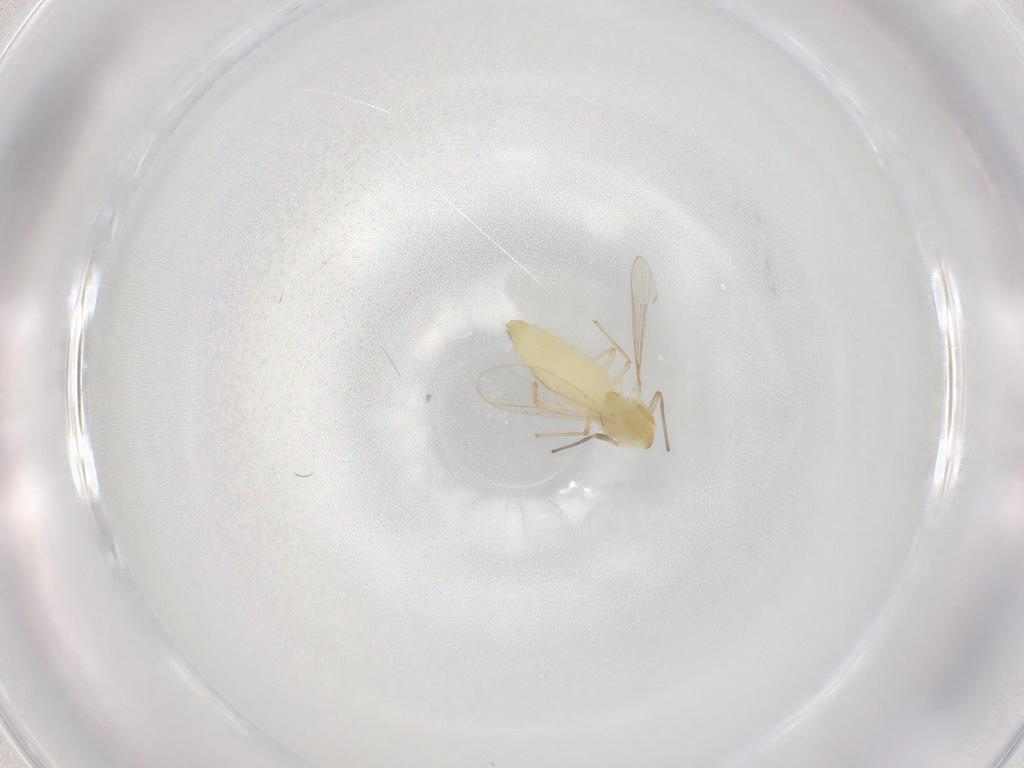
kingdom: Animalia
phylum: Arthropoda
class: Insecta
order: Diptera
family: Chironomidae
